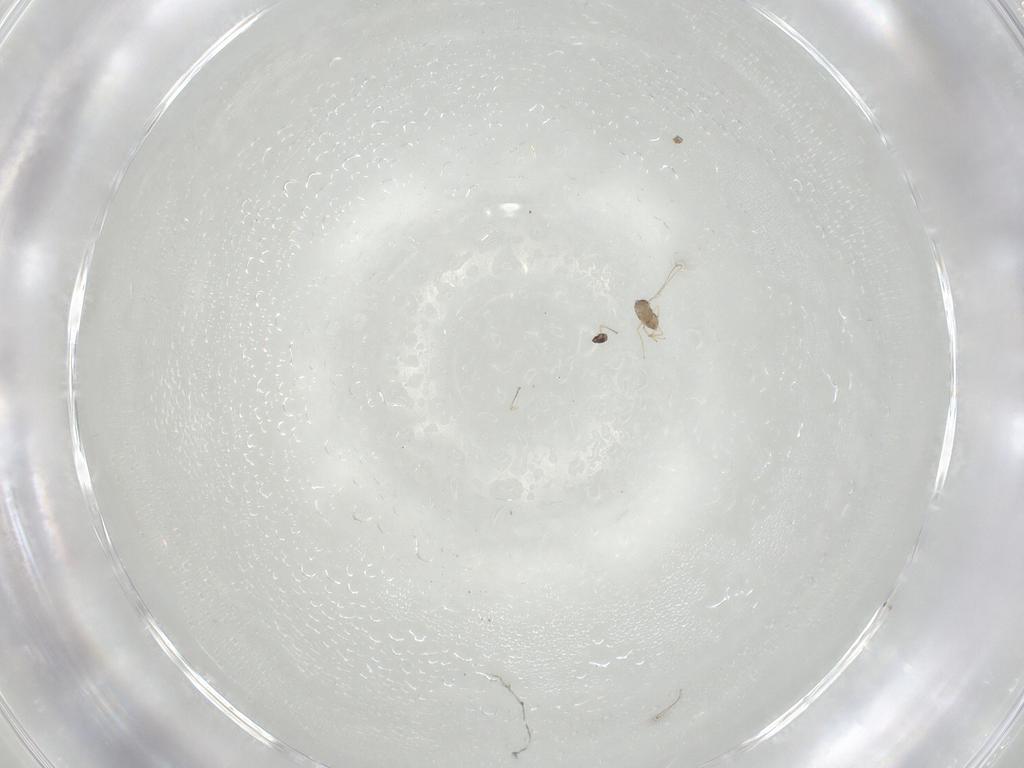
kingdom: Animalia
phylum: Arthropoda
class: Insecta
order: Hymenoptera
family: Mymaridae
